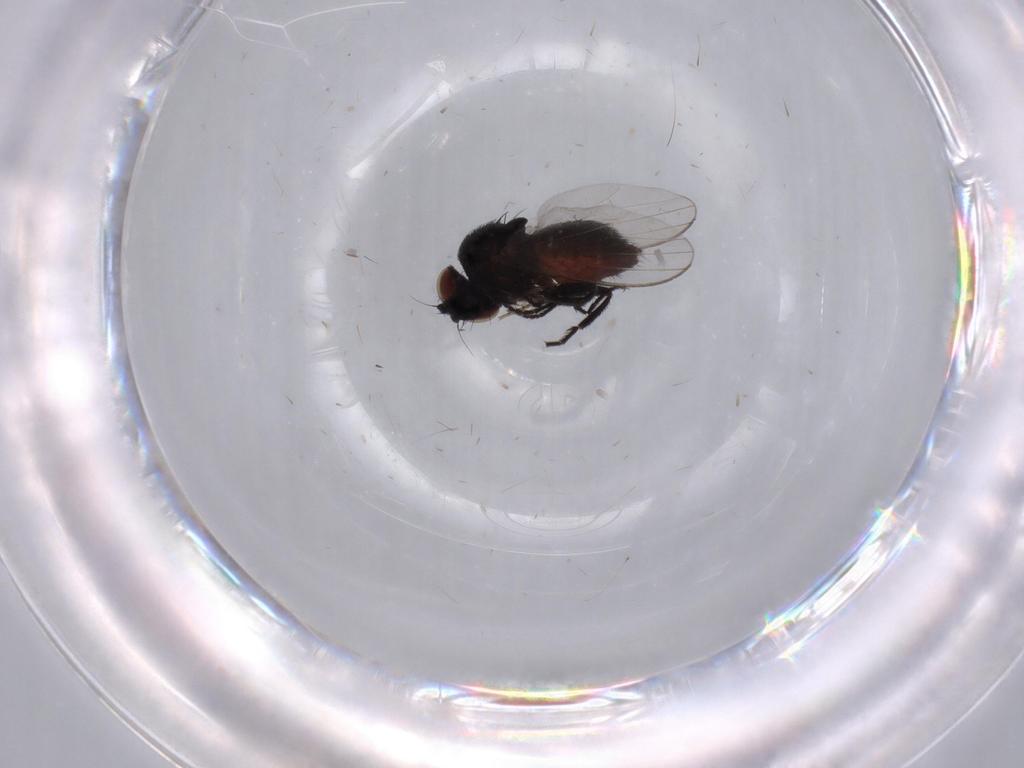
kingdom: Animalia
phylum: Arthropoda
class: Insecta
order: Diptera
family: Milichiidae
